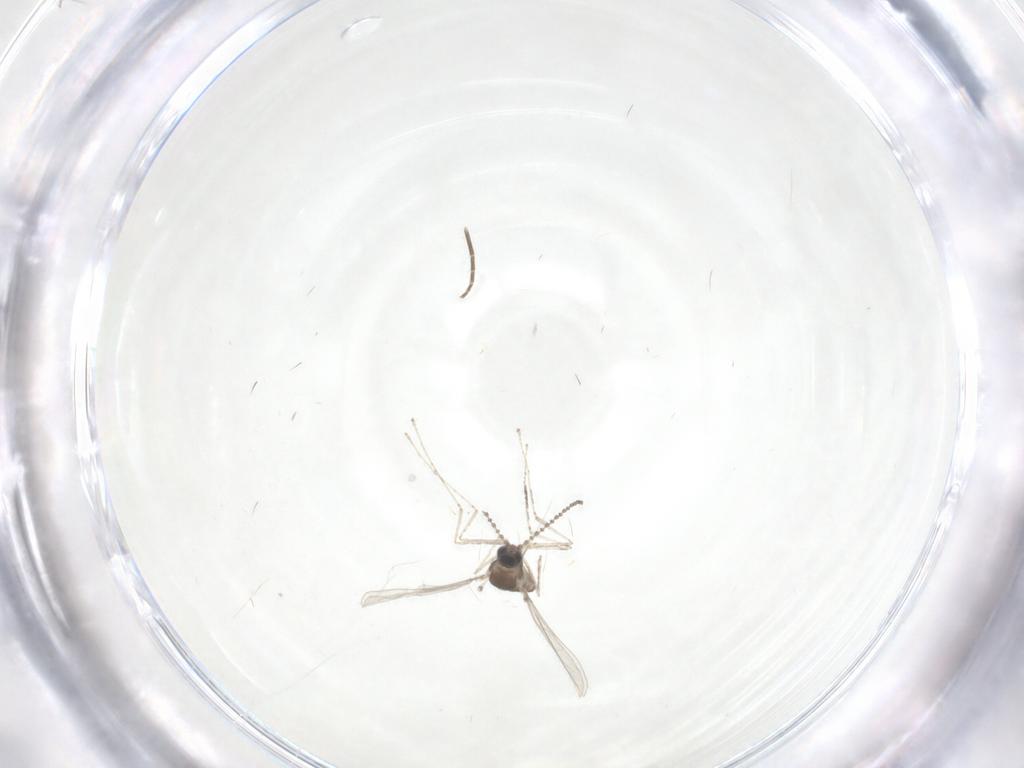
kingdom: Animalia
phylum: Arthropoda
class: Insecta
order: Diptera
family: Cecidomyiidae
